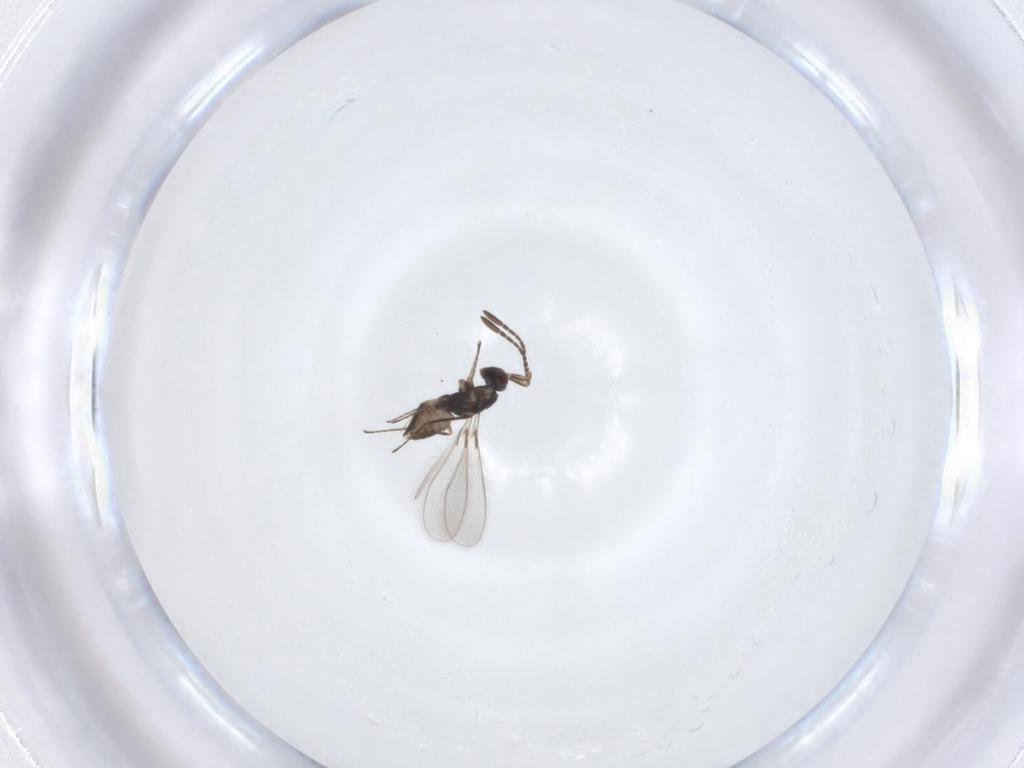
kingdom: Animalia
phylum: Arthropoda
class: Insecta
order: Hymenoptera
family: Mymaridae
